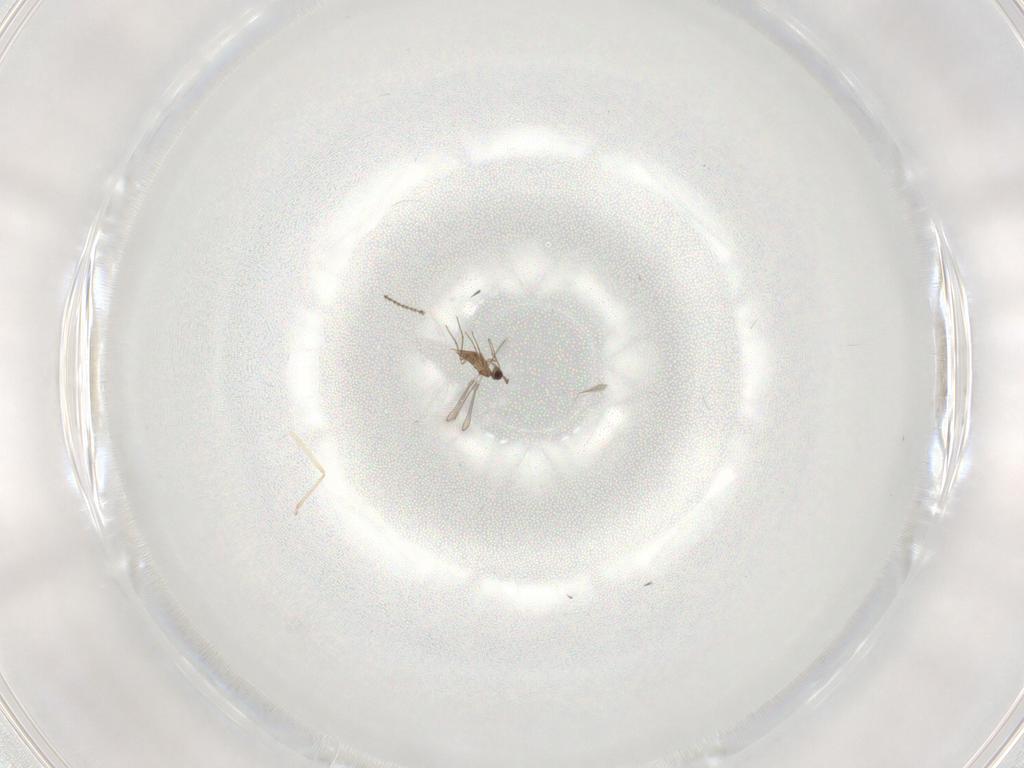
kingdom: Animalia
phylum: Arthropoda
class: Insecta
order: Hymenoptera
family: Mymaridae
